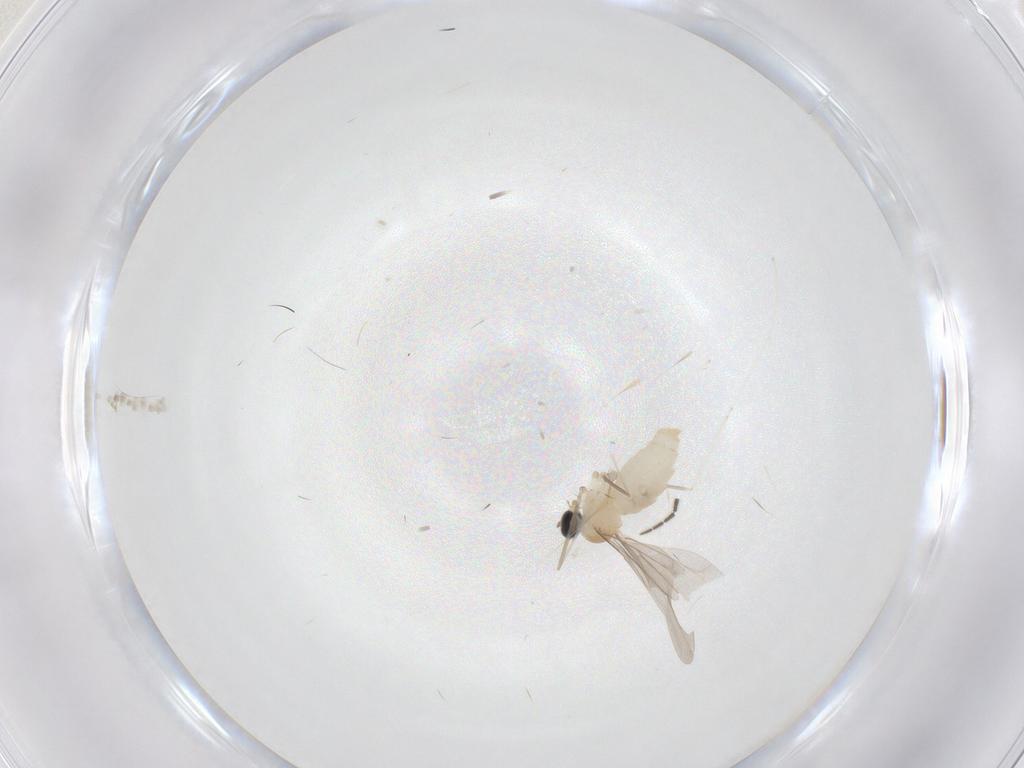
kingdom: Animalia
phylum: Arthropoda
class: Insecta
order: Diptera
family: Cecidomyiidae
